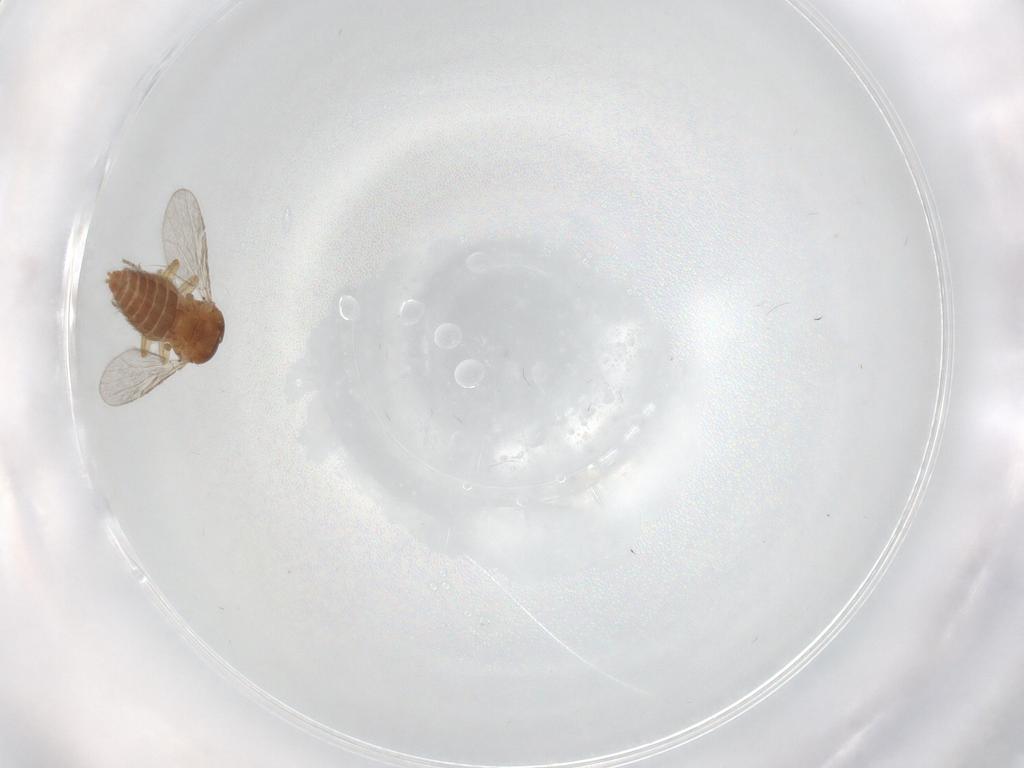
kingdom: Animalia
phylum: Arthropoda
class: Insecta
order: Diptera
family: Ceratopogonidae
